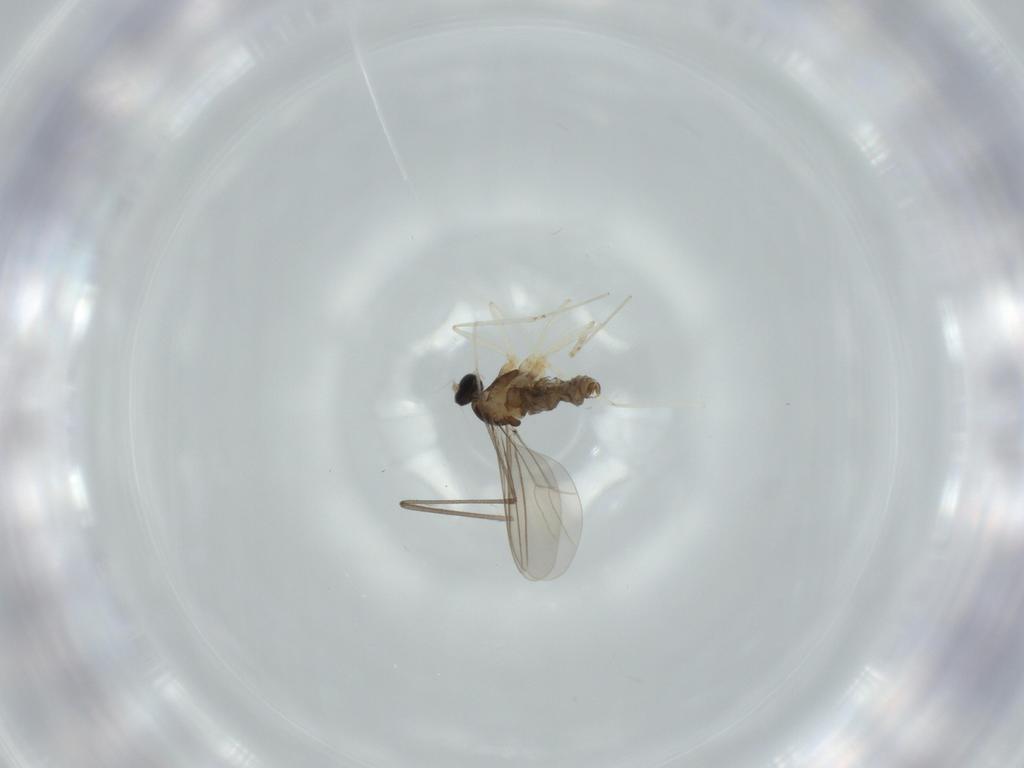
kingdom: Animalia
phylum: Arthropoda
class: Insecta
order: Diptera
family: Cecidomyiidae
